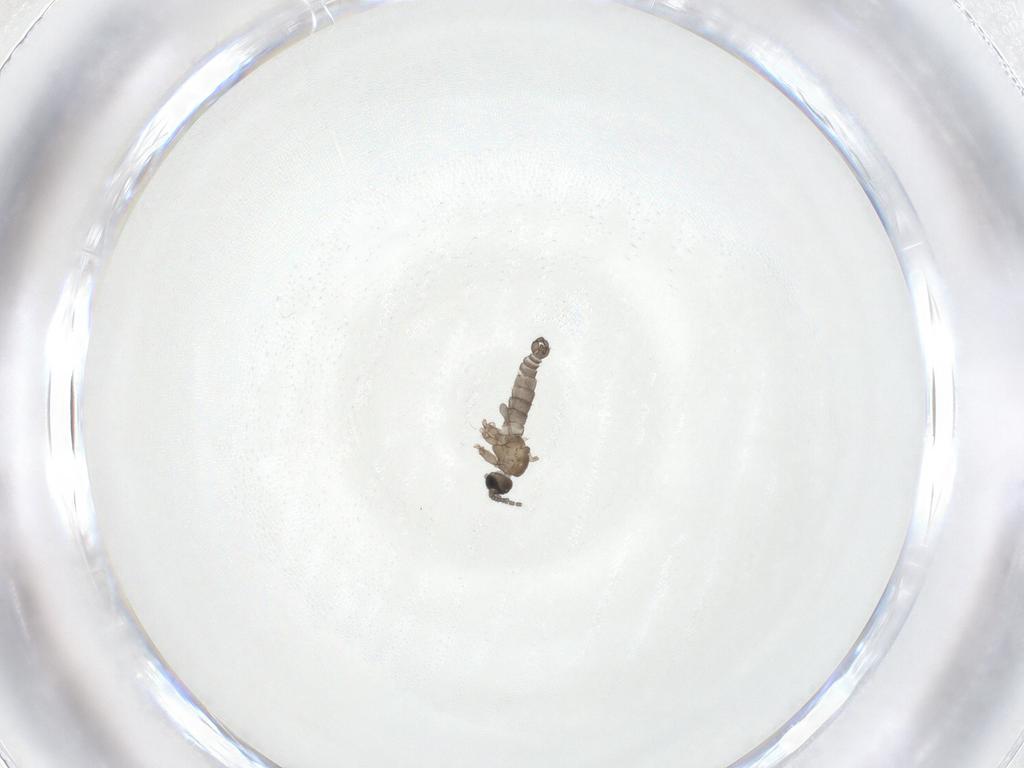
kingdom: Animalia
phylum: Arthropoda
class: Insecta
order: Diptera
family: Sciaridae
